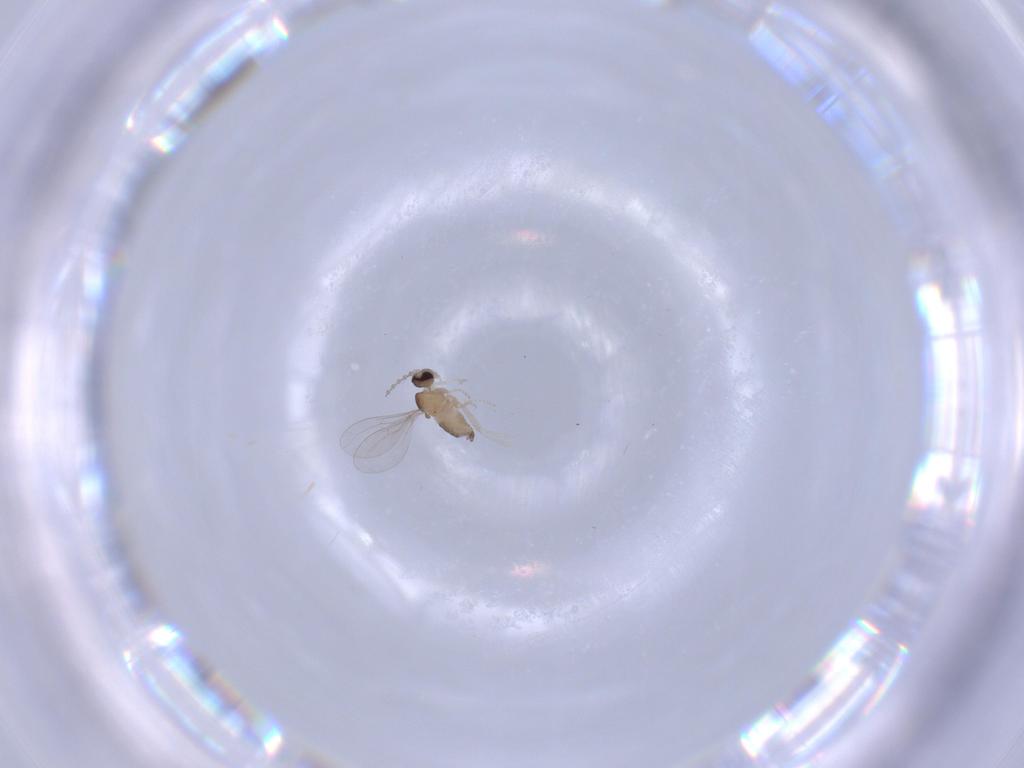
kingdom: Animalia
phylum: Arthropoda
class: Insecta
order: Diptera
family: Cecidomyiidae
